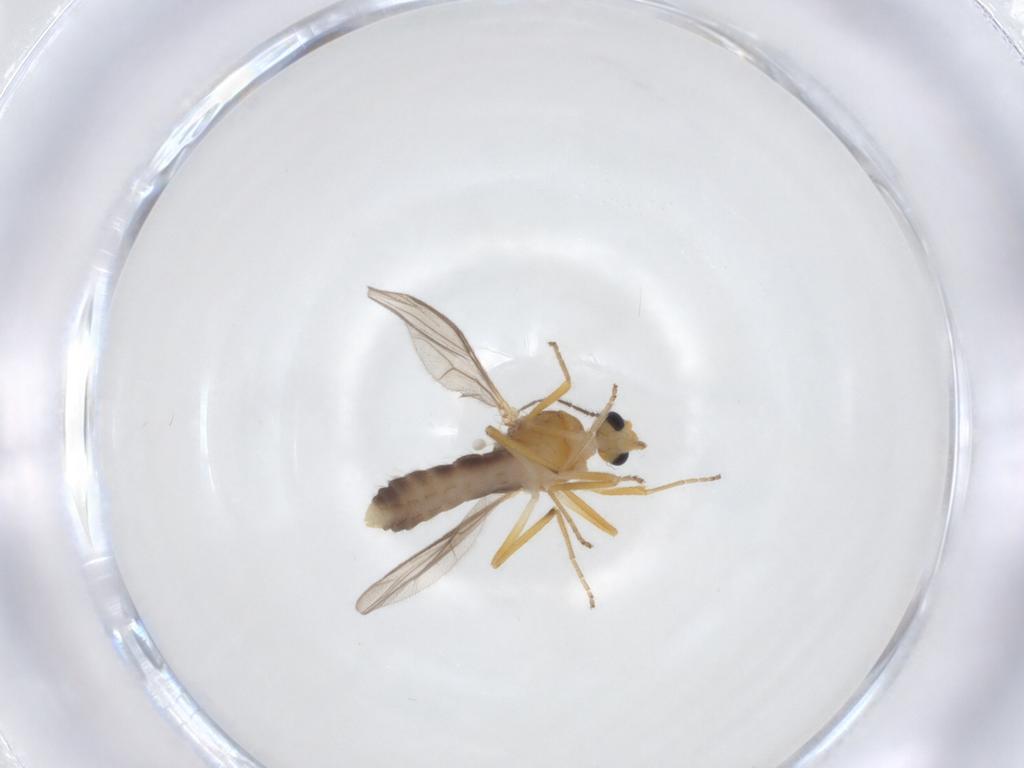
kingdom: Animalia
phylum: Arthropoda
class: Insecta
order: Diptera
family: Ceratopogonidae
